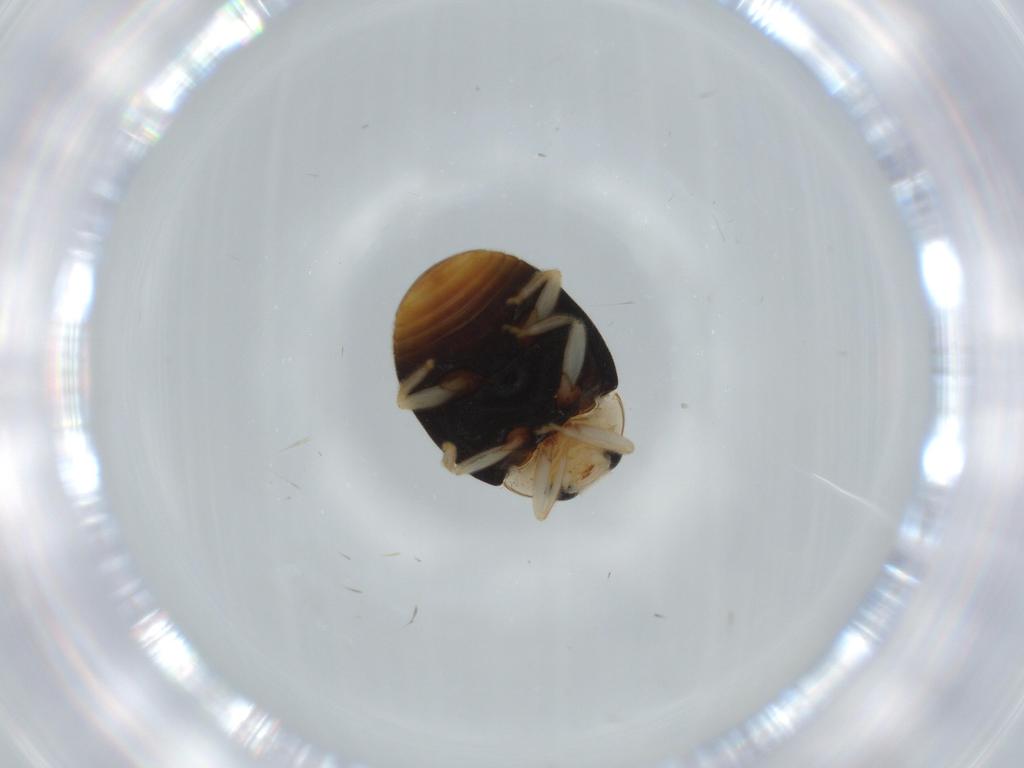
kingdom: Animalia
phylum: Arthropoda
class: Insecta
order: Coleoptera
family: Coccinellidae
